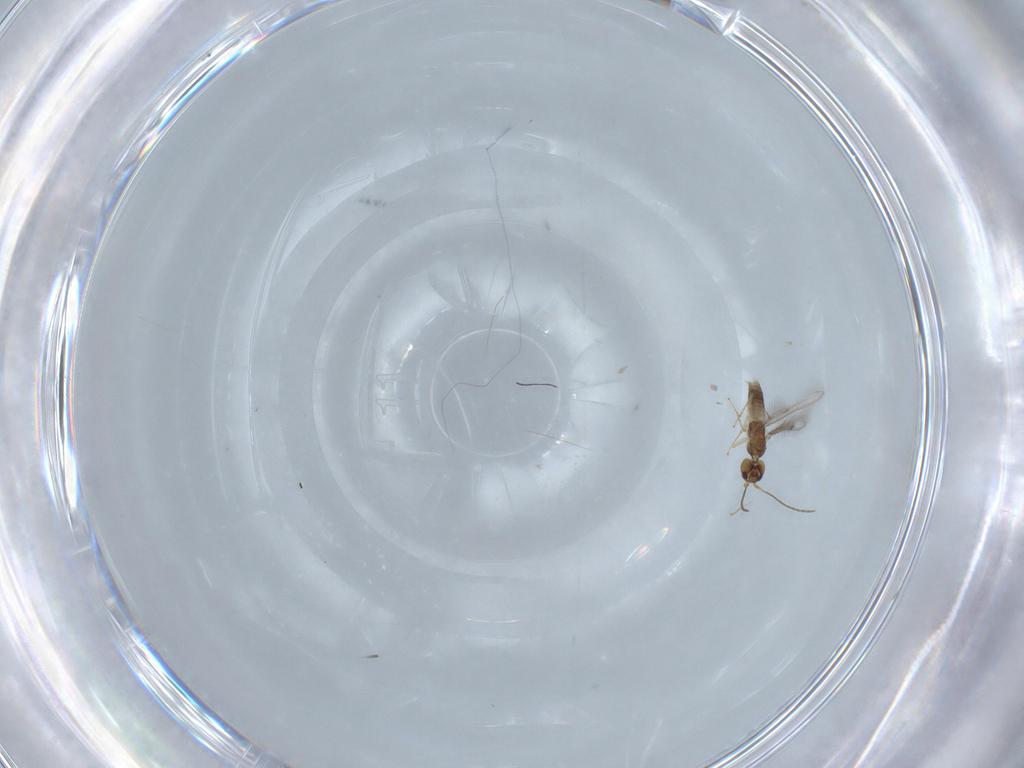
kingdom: Animalia
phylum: Arthropoda
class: Insecta
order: Hymenoptera
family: Mymaridae
